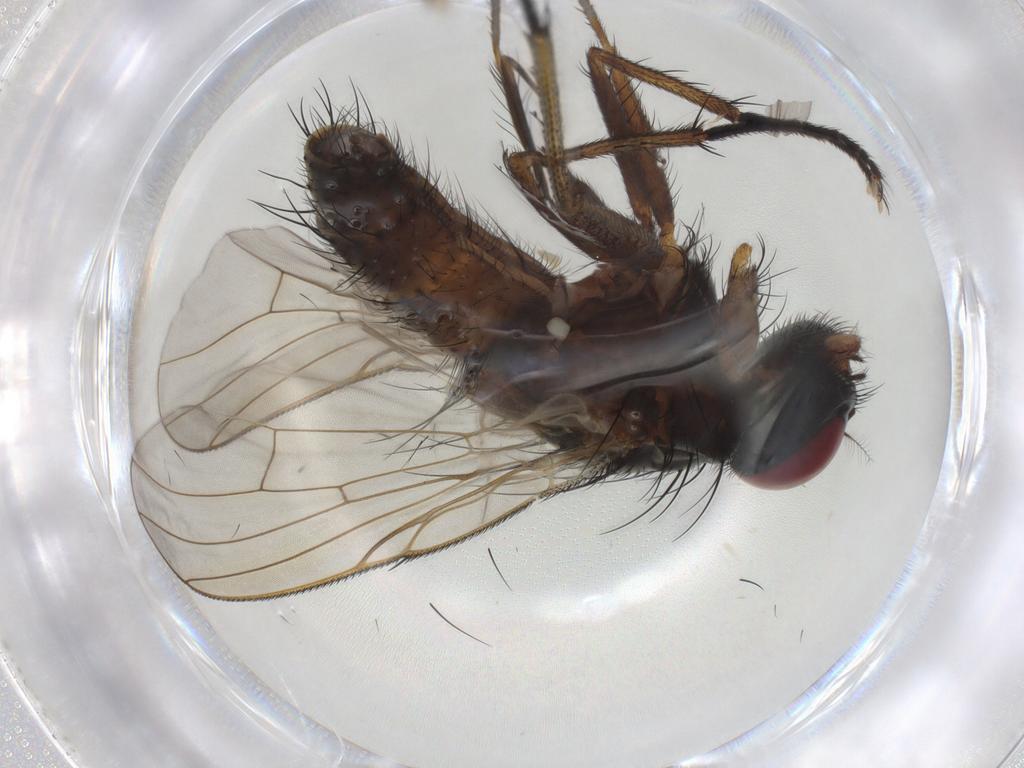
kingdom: Animalia
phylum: Arthropoda
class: Insecta
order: Diptera
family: Muscidae
